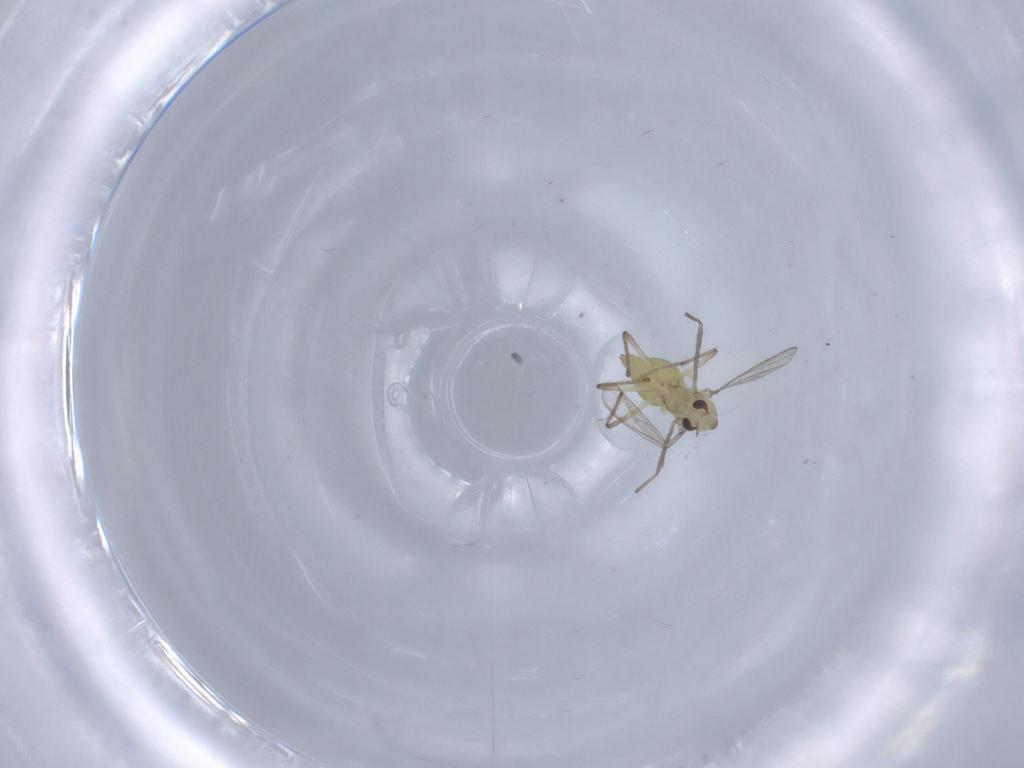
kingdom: Animalia
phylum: Arthropoda
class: Insecta
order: Diptera
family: Chironomidae
